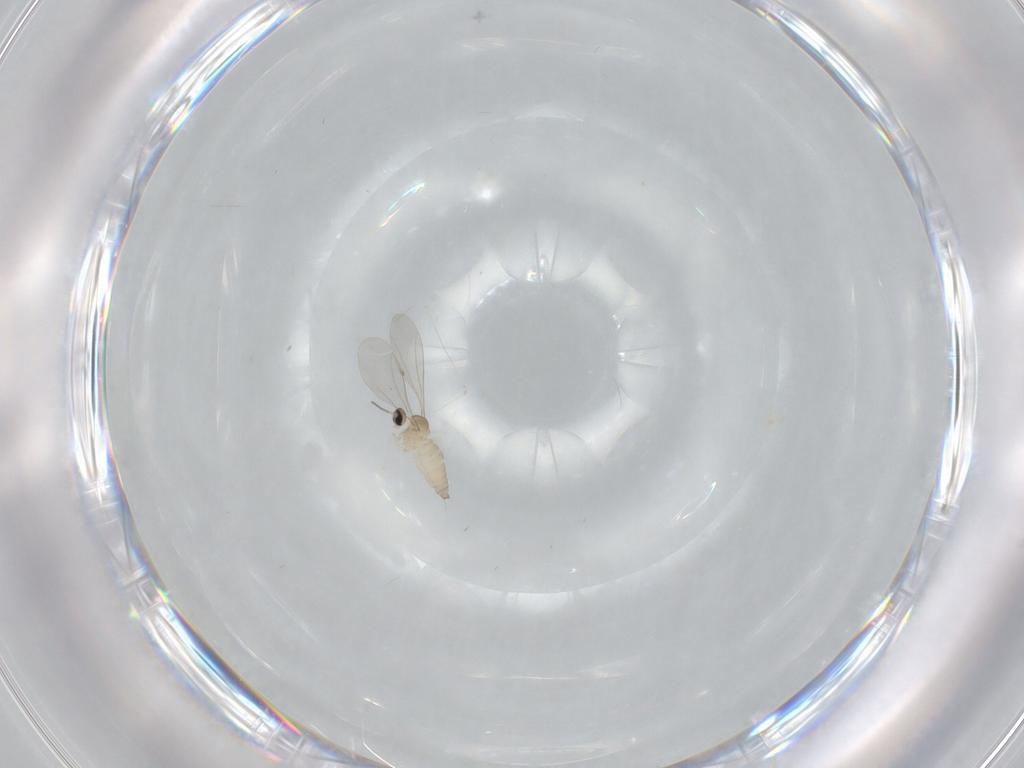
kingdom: Animalia
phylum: Arthropoda
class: Insecta
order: Diptera
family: Cecidomyiidae
